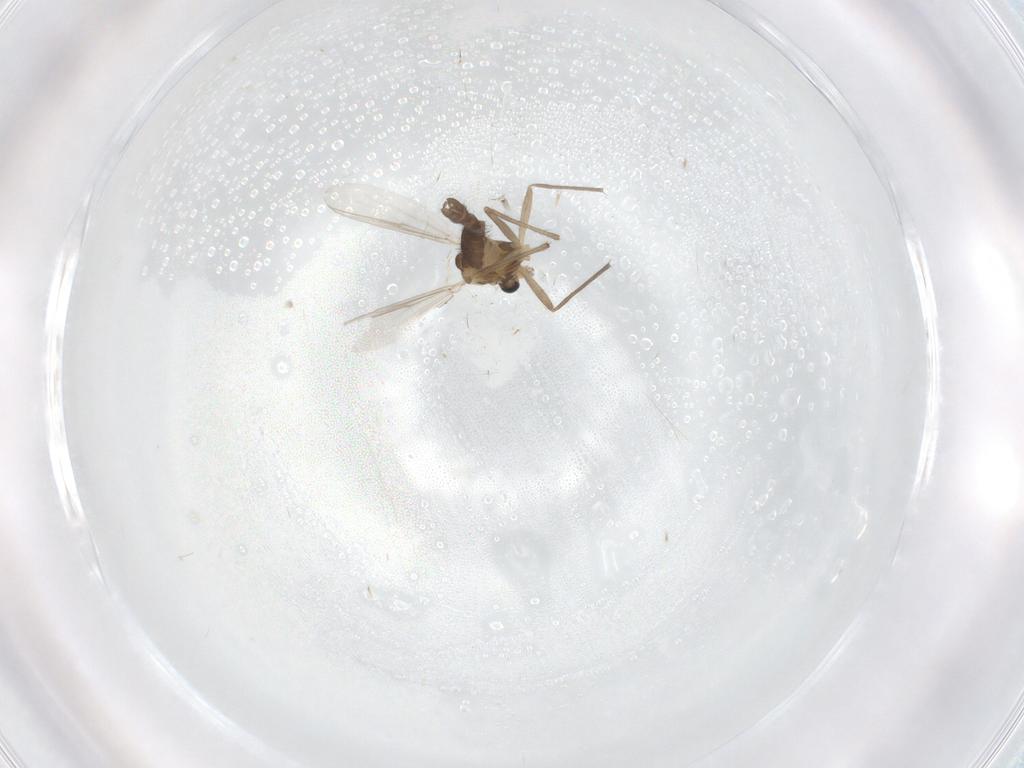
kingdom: Animalia
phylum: Arthropoda
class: Insecta
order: Diptera
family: Chironomidae
